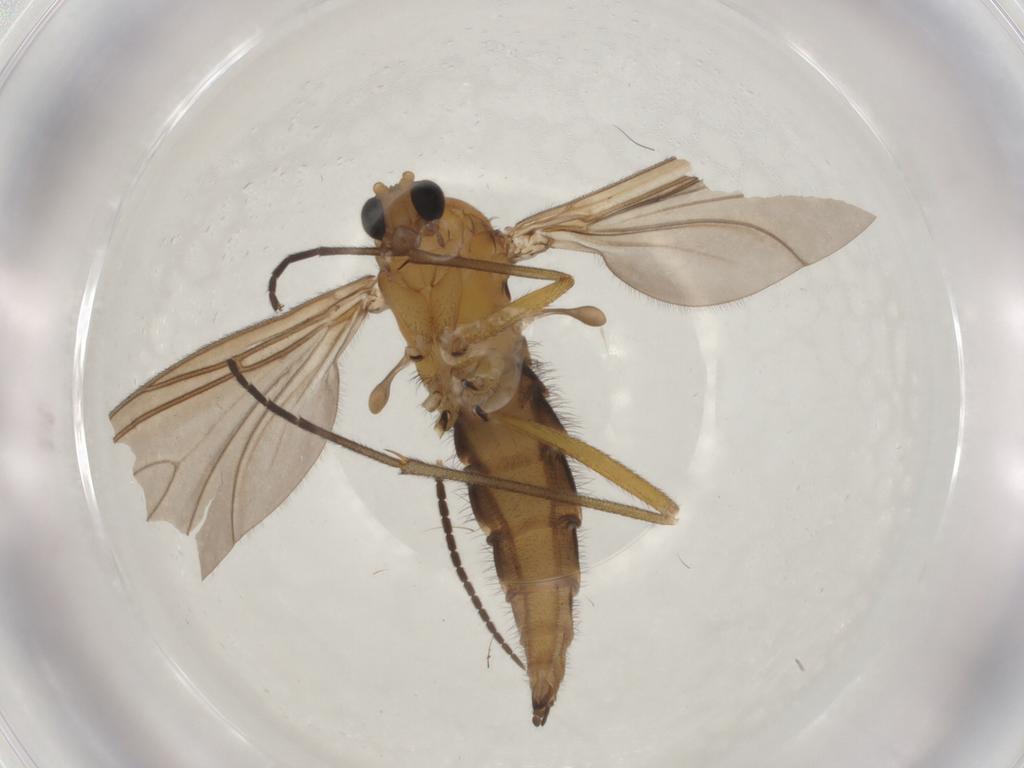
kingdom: Animalia
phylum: Arthropoda
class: Insecta
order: Diptera
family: Sciaridae
